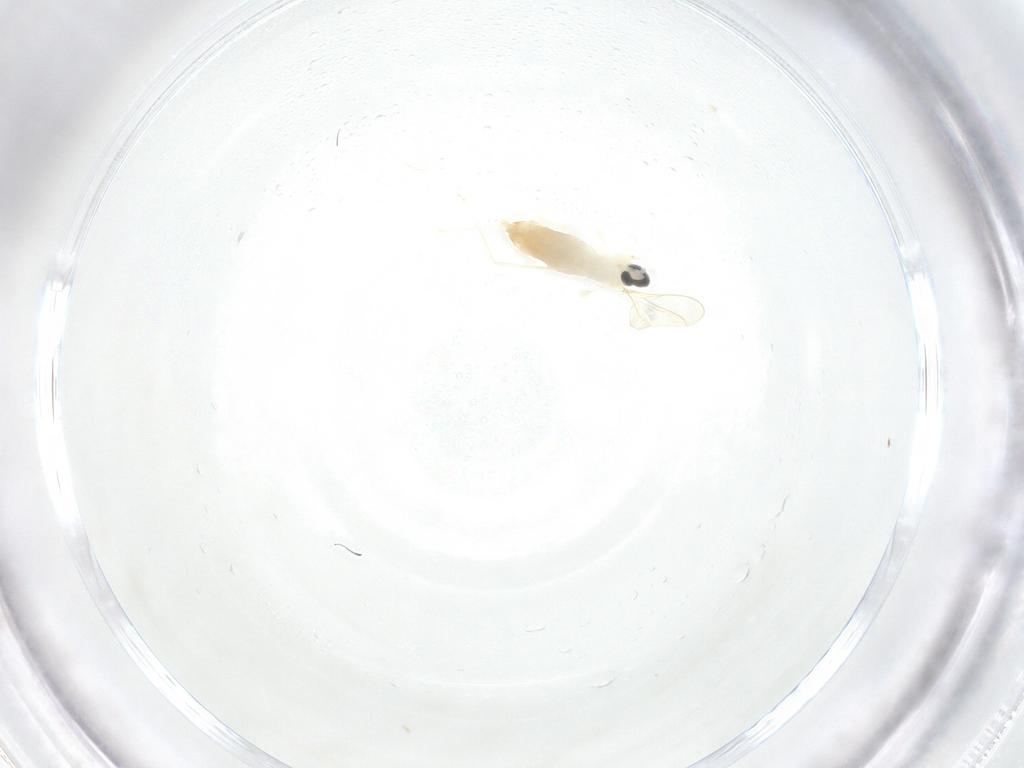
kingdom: Animalia
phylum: Arthropoda
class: Insecta
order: Diptera
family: Cecidomyiidae
